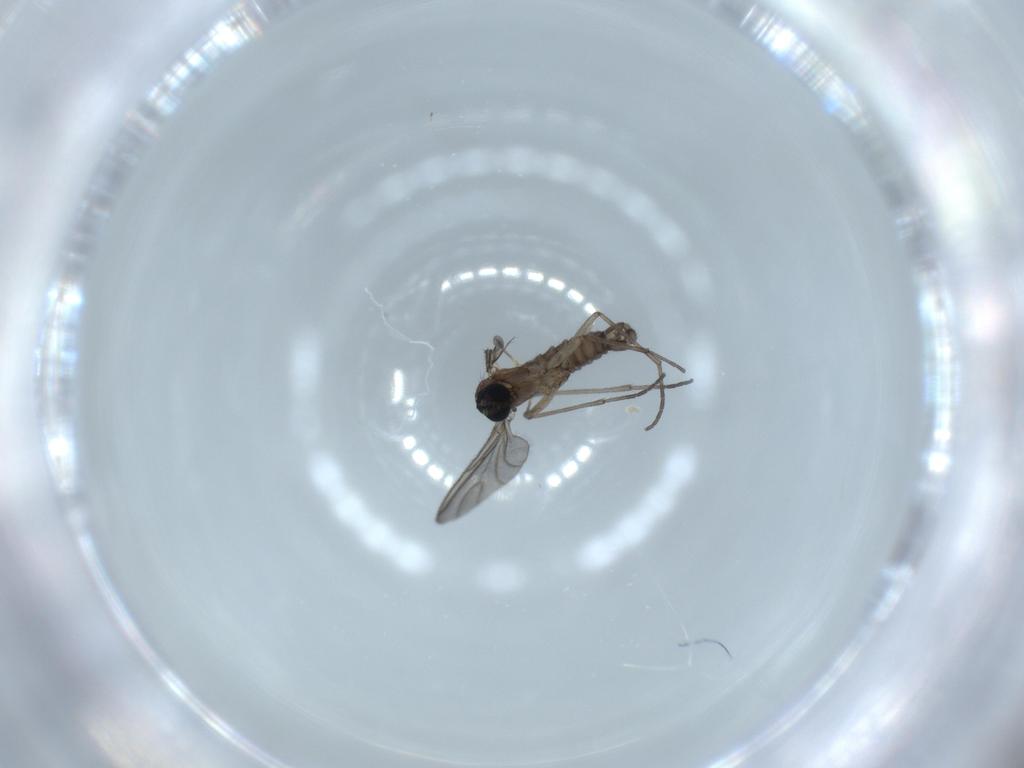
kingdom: Animalia
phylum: Arthropoda
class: Insecta
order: Diptera
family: Sciaridae
